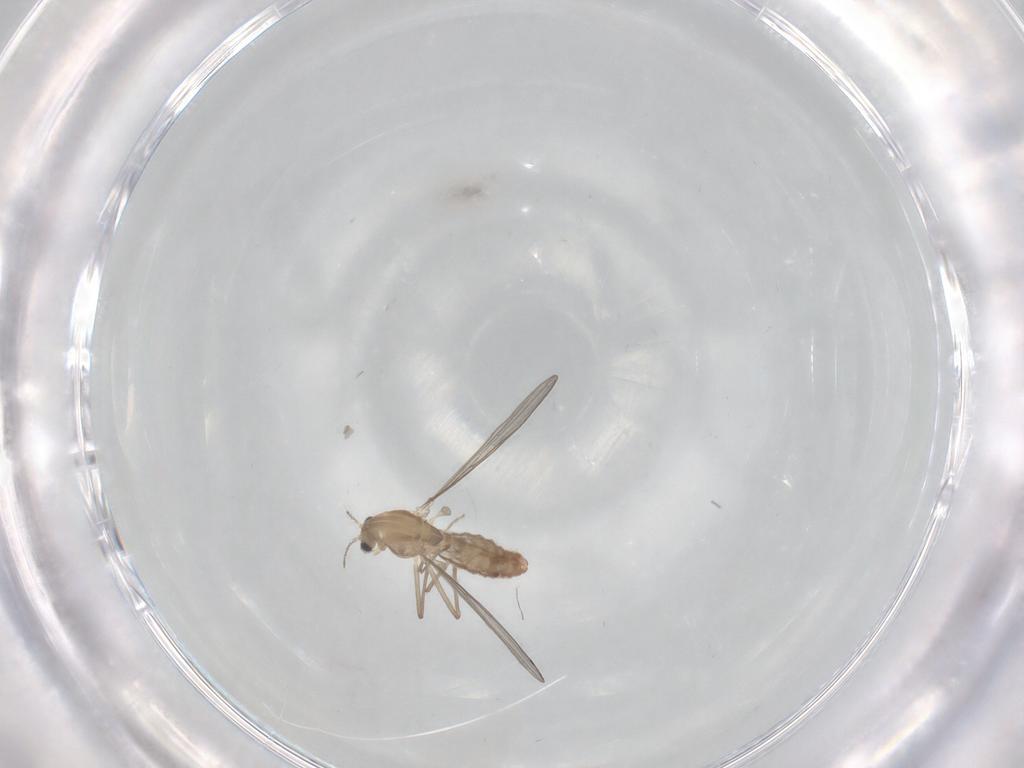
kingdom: Animalia
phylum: Arthropoda
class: Insecta
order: Diptera
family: Chironomidae
